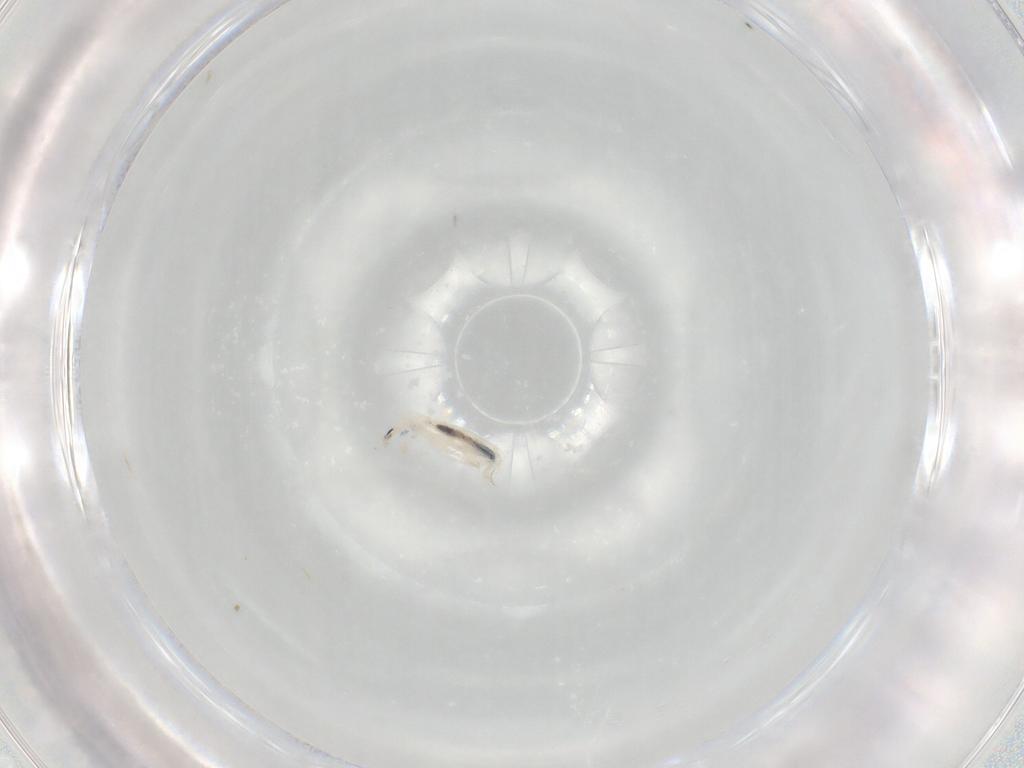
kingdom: Animalia
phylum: Arthropoda
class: Collembola
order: Entomobryomorpha
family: Entomobryidae
